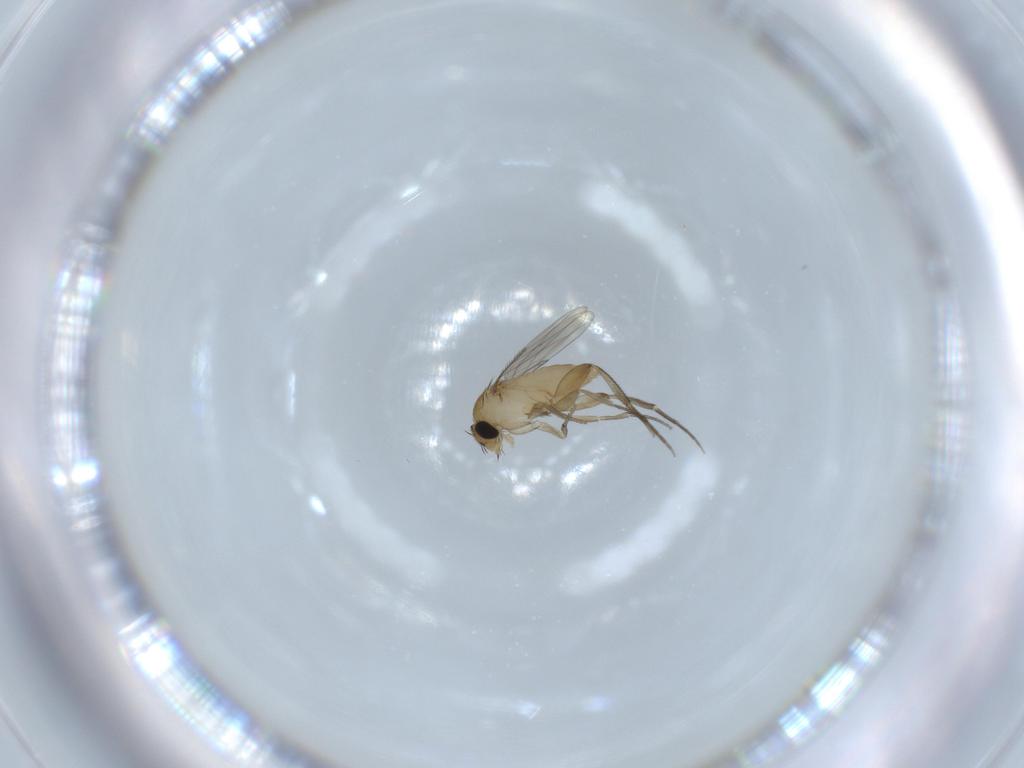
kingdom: Animalia
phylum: Arthropoda
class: Insecta
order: Diptera
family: Phoridae
